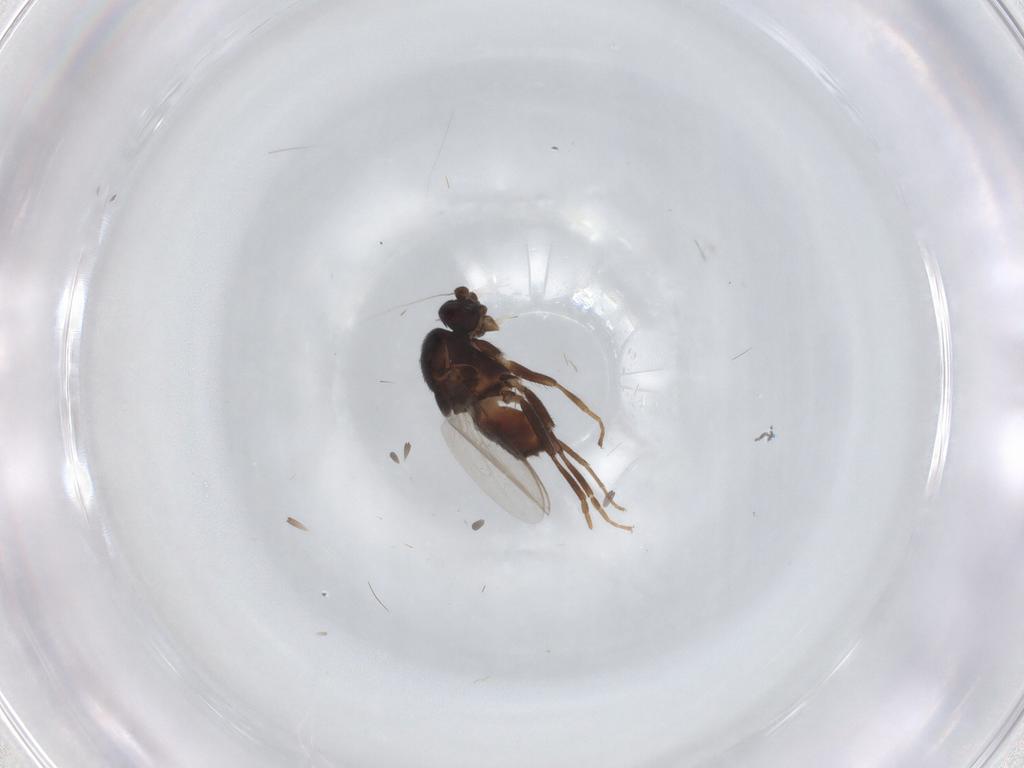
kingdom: Animalia
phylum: Arthropoda
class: Insecta
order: Diptera
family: Sphaeroceridae
